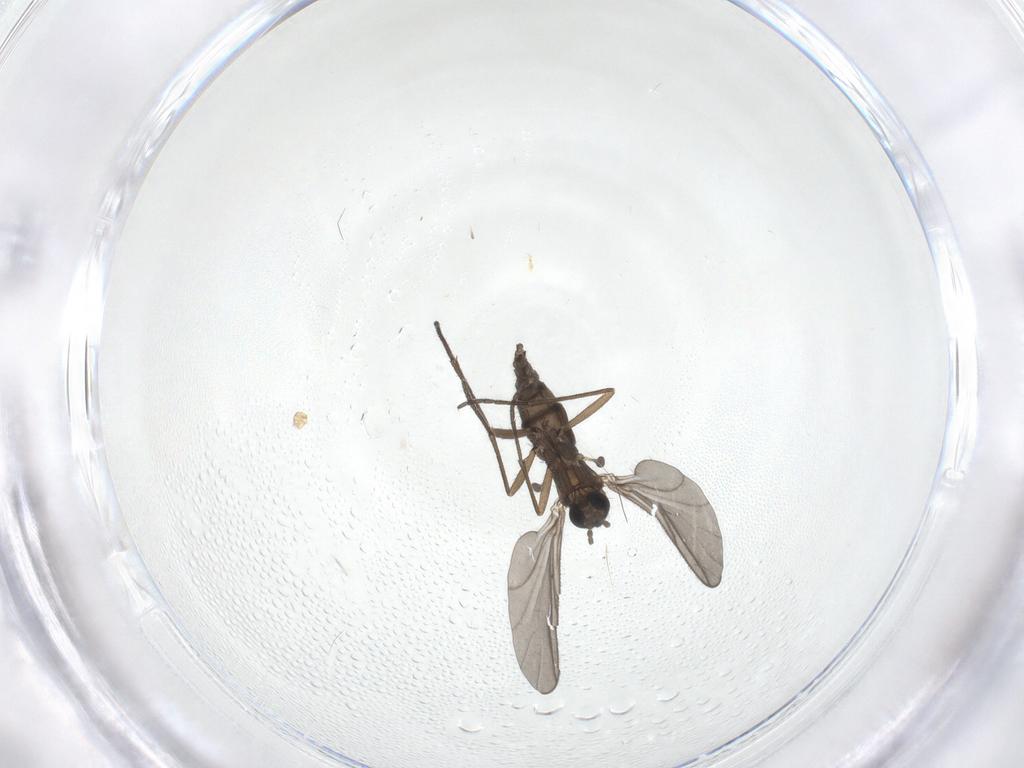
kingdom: Animalia
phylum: Arthropoda
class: Insecta
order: Diptera
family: Sciaridae
